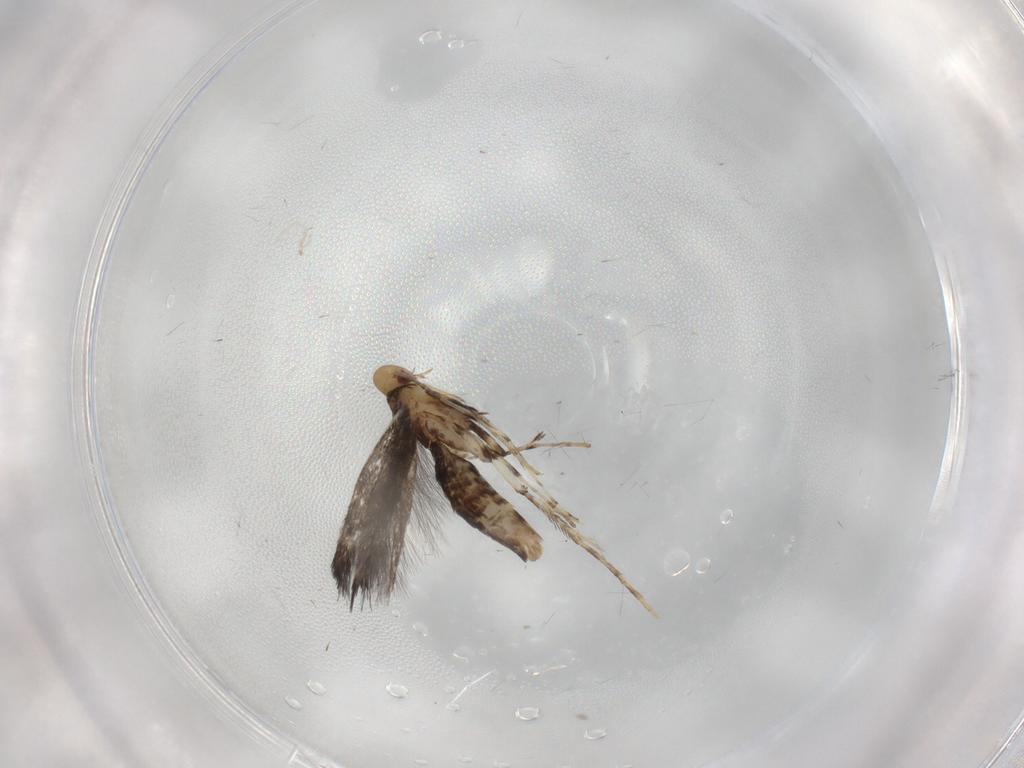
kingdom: Animalia
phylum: Arthropoda
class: Insecta
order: Lepidoptera
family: Gracillariidae
